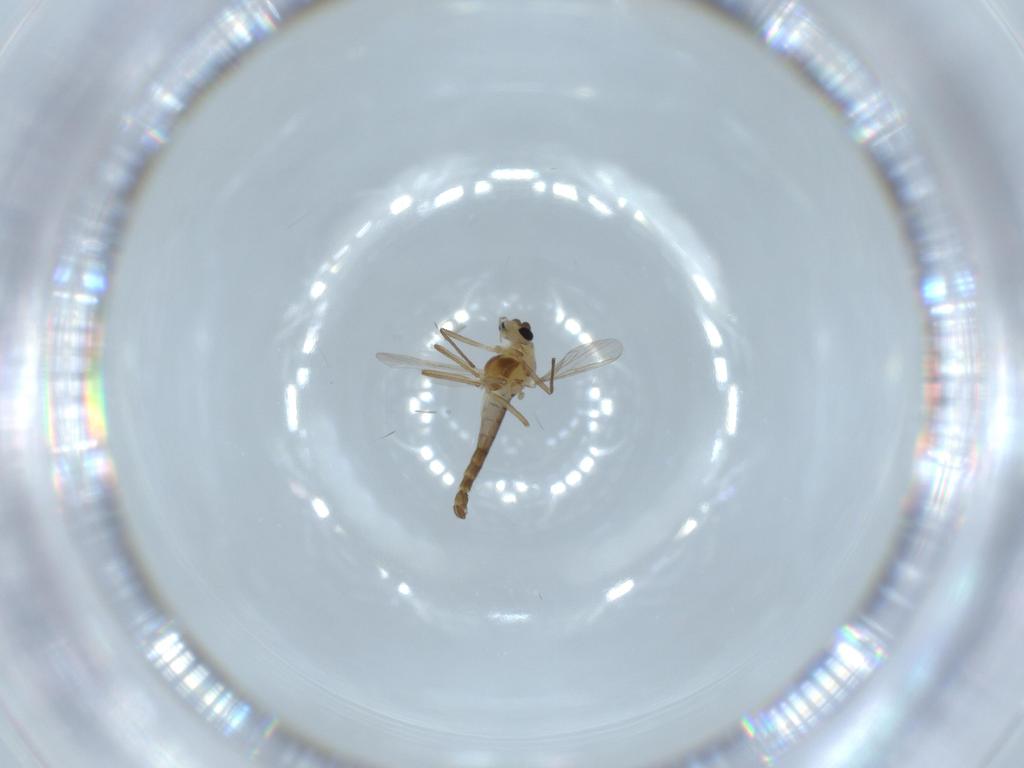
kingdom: Animalia
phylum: Arthropoda
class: Insecta
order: Diptera
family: Chironomidae
